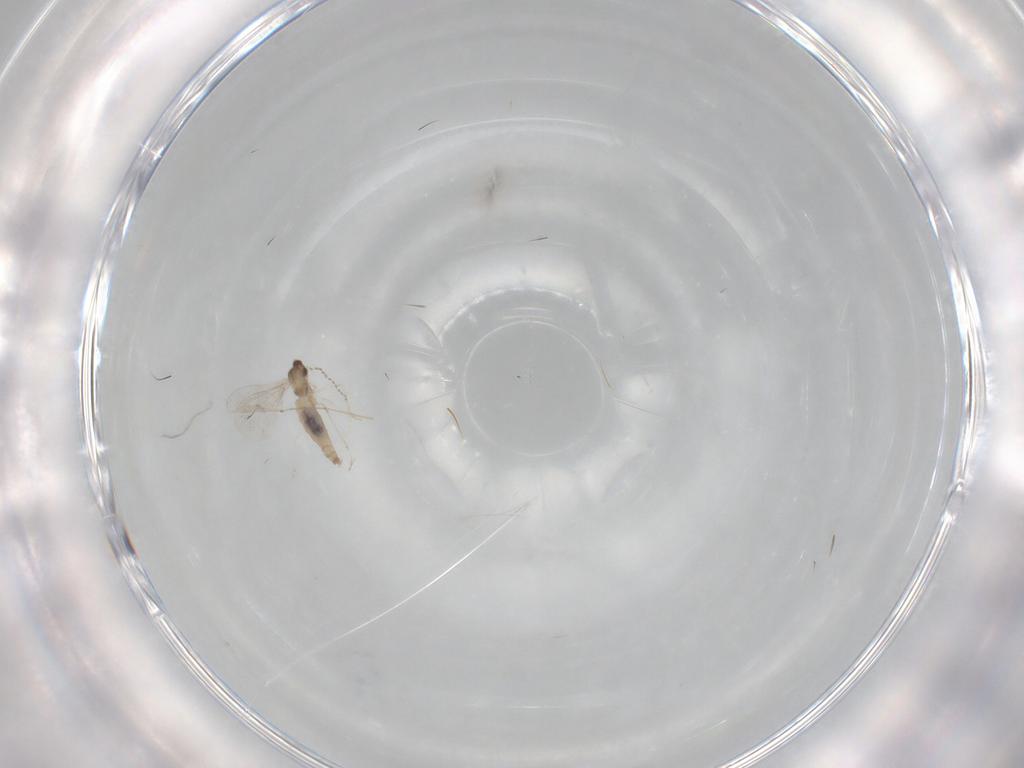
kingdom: Animalia
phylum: Arthropoda
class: Insecta
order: Diptera
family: Cecidomyiidae
